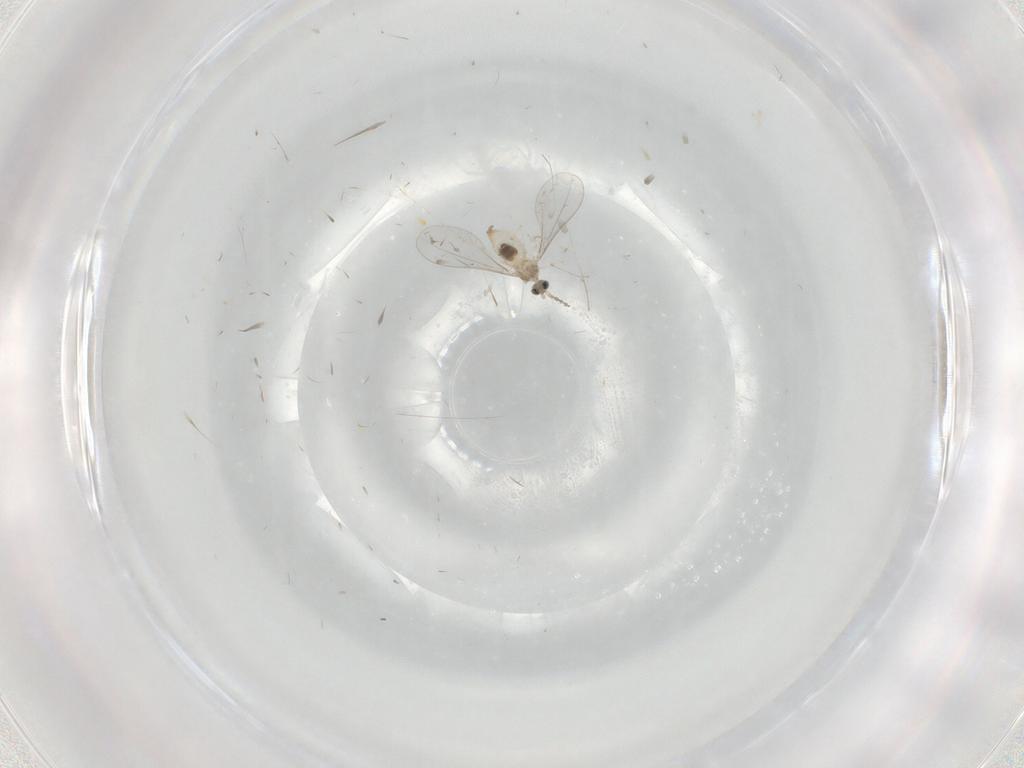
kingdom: Animalia
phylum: Arthropoda
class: Insecta
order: Diptera
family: Cecidomyiidae
